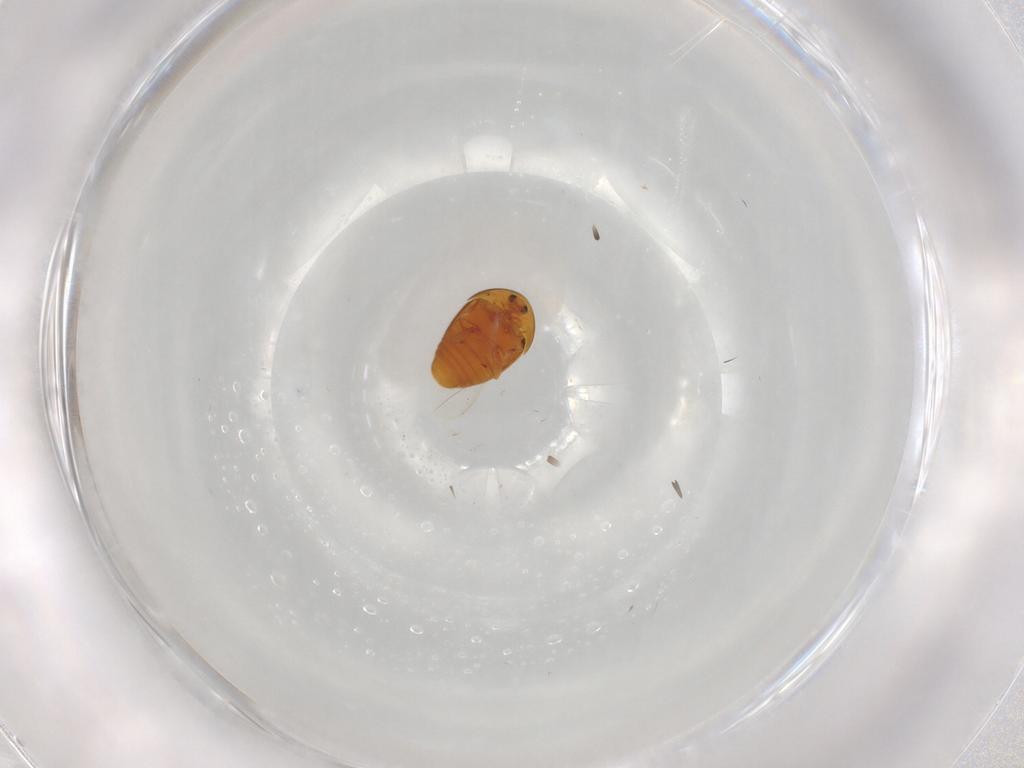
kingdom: Animalia
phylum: Arthropoda
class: Insecta
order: Coleoptera
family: Corylophidae
